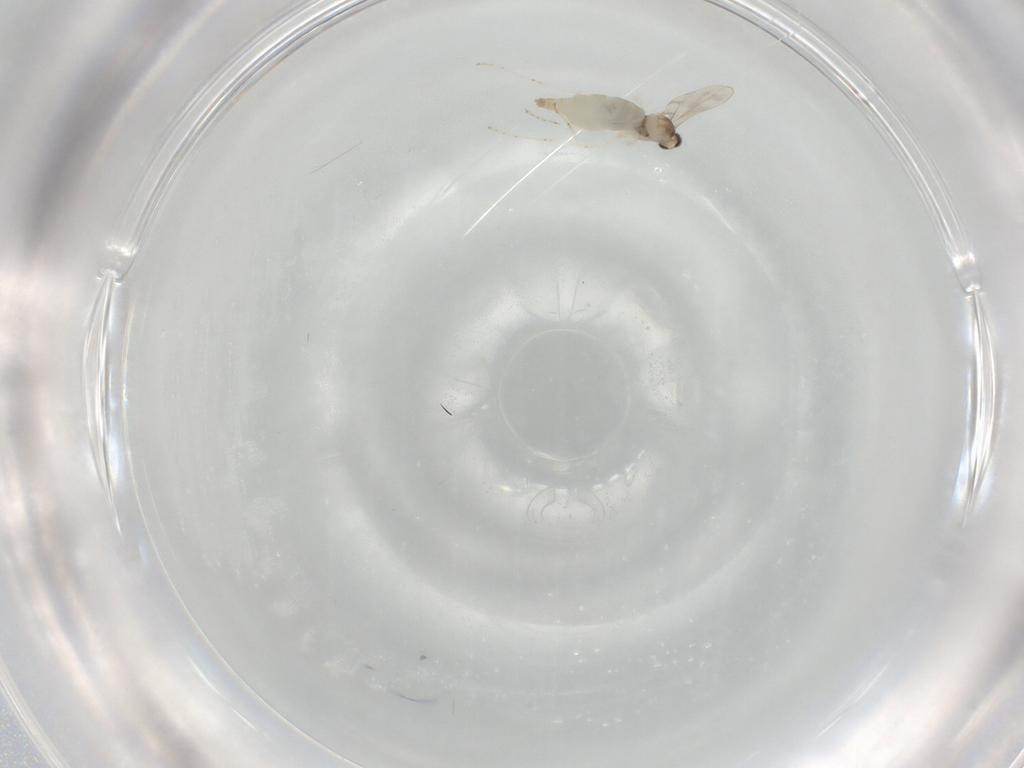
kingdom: Animalia
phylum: Arthropoda
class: Insecta
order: Diptera
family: Cecidomyiidae
